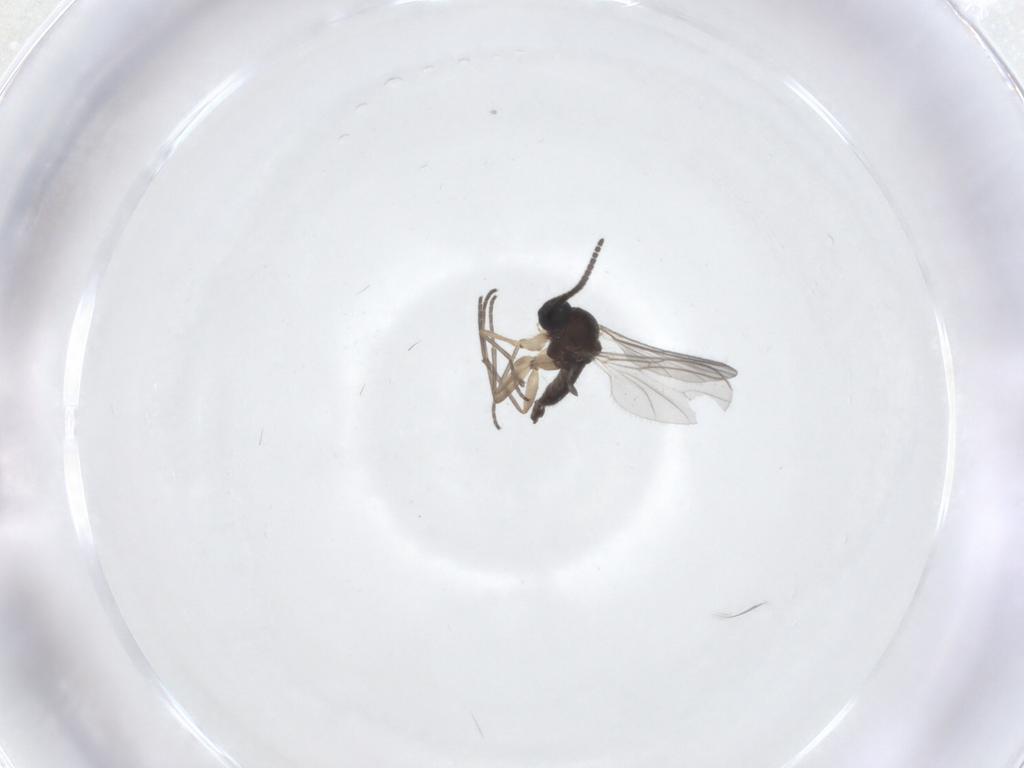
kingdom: Animalia
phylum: Arthropoda
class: Insecta
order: Diptera
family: Sciaridae
